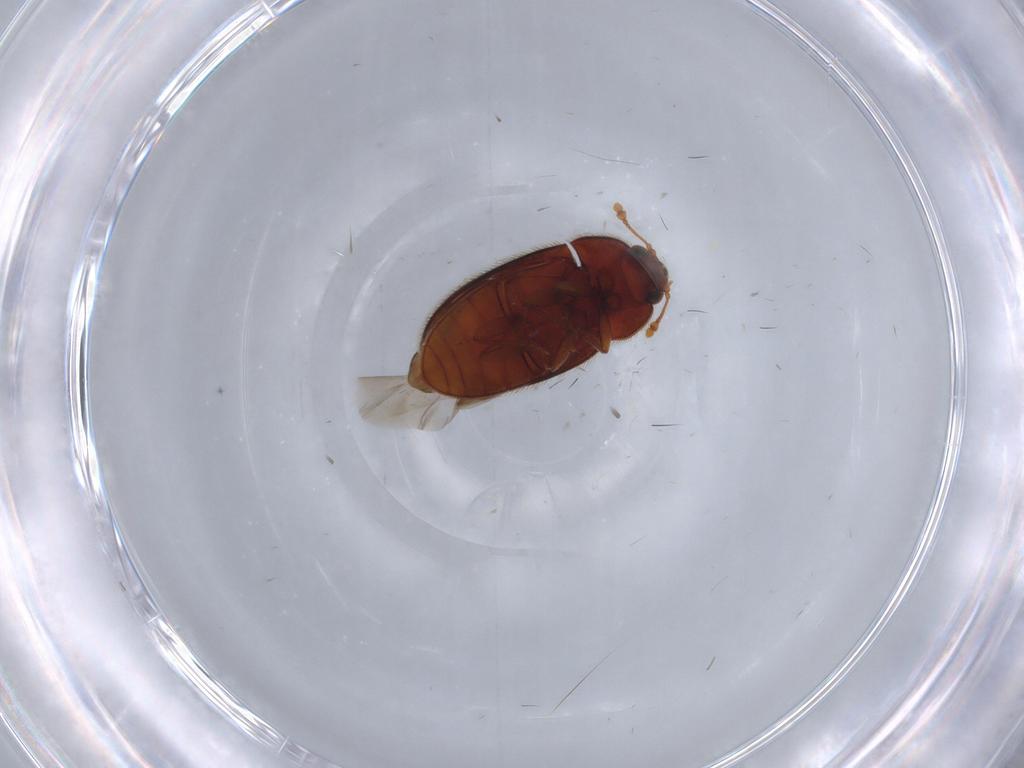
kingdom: Animalia
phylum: Arthropoda
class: Insecta
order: Coleoptera
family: Biphyllidae
